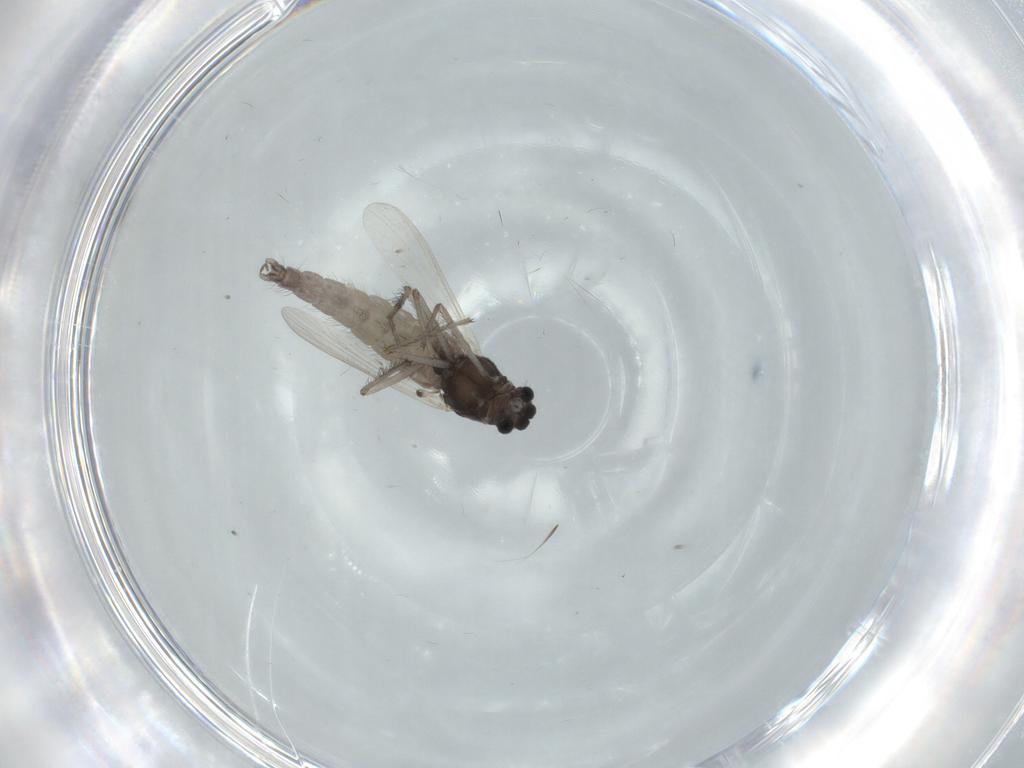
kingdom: Animalia
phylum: Arthropoda
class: Insecta
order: Diptera
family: Chironomidae
